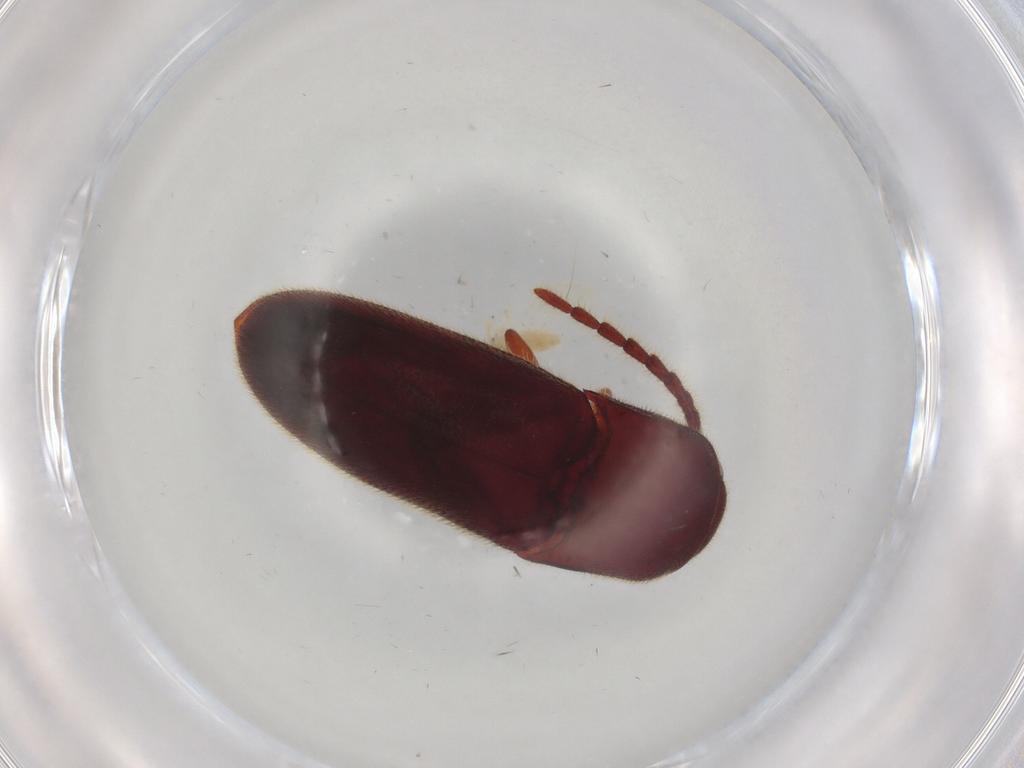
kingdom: Animalia
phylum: Arthropoda
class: Insecta
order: Coleoptera
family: Eucnemidae
